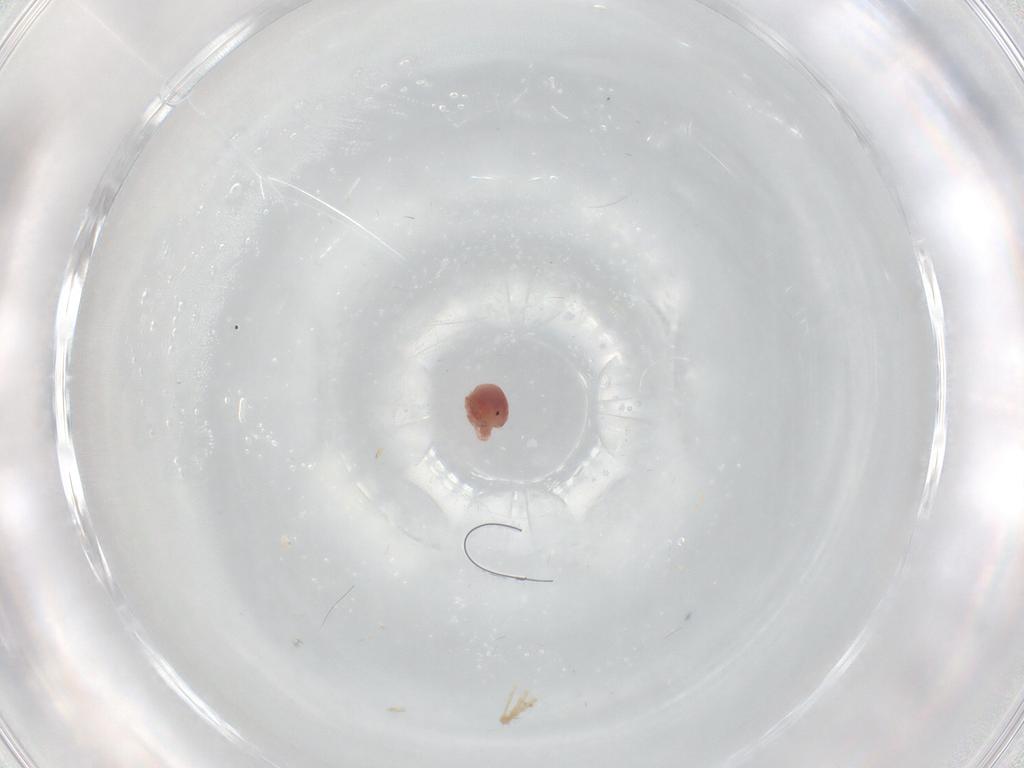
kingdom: Animalia
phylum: Arthropoda
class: Arachnida
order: Trombidiformes
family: Lebertiidae
